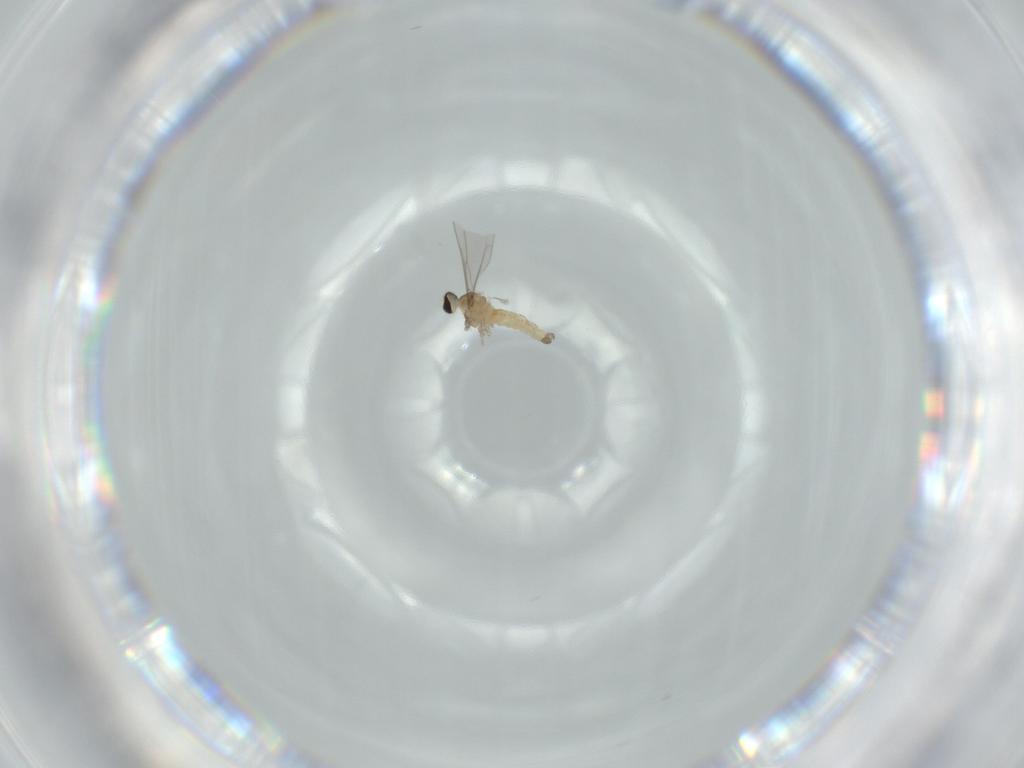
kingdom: Animalia
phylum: Arthropoda
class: Insecta
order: Diptera
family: Cecidomyiidae
